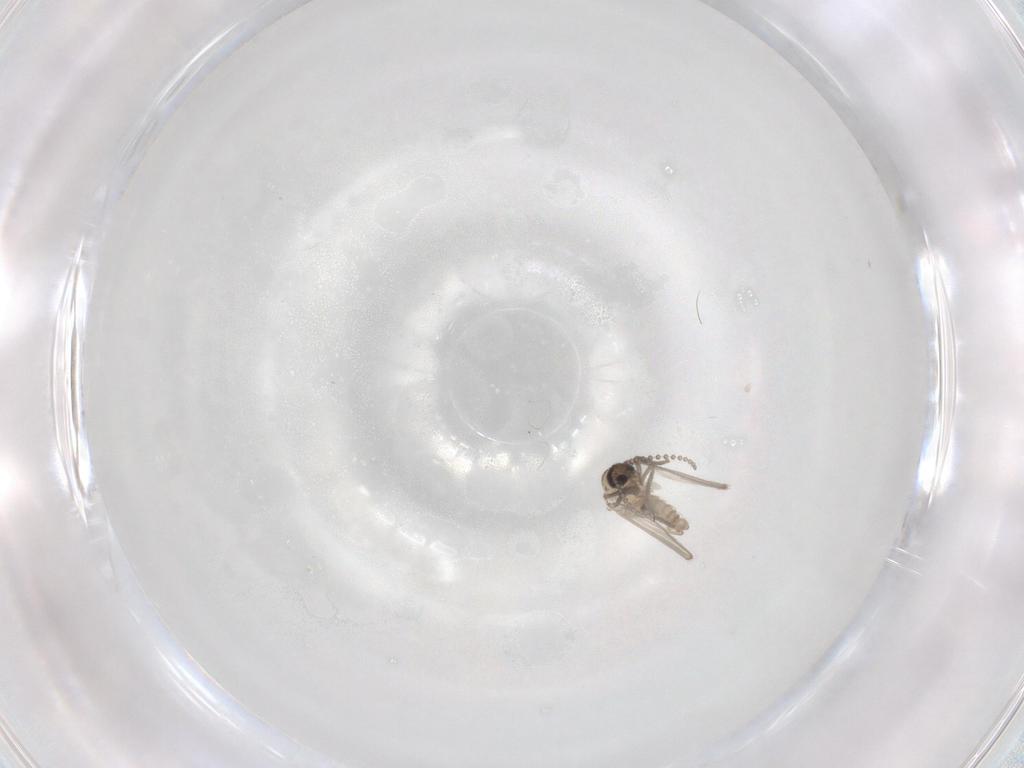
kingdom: Animalia
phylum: Arthropoda
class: Insecta
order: Diptera
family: Psychodidae
